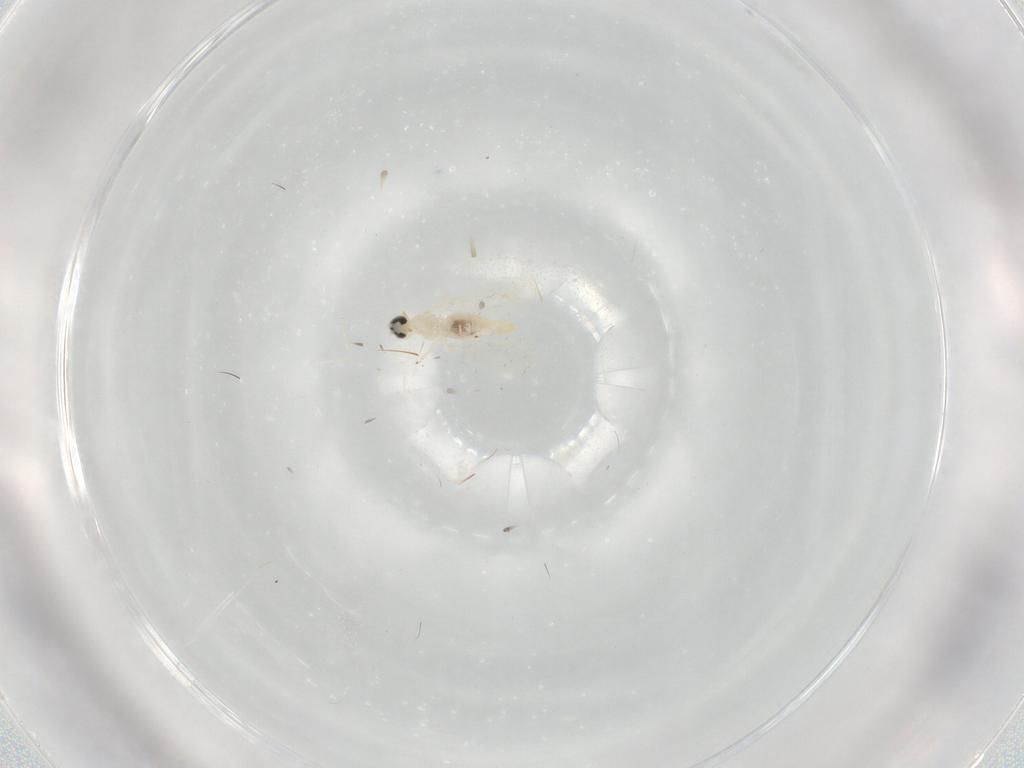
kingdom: Animalia
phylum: Arthropoda
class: Insecta
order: Diptera
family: Cecidomyiidae
